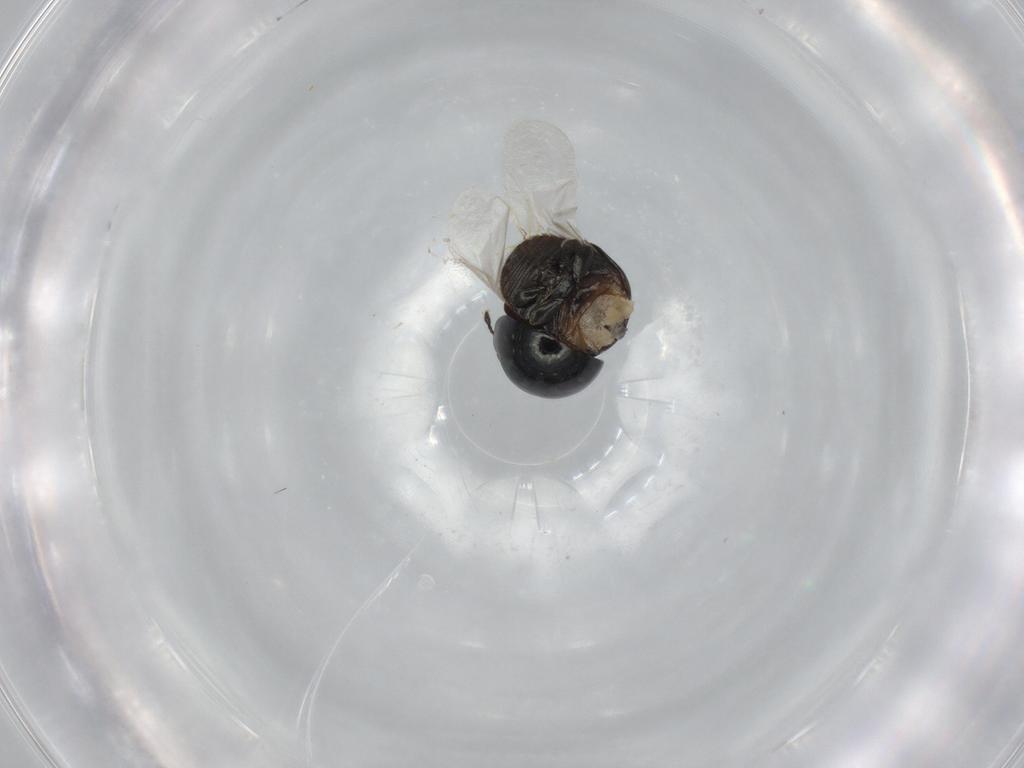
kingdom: Animalia
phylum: Arthropoda
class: Insecta
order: Coleoptera
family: Cybocephalidae
